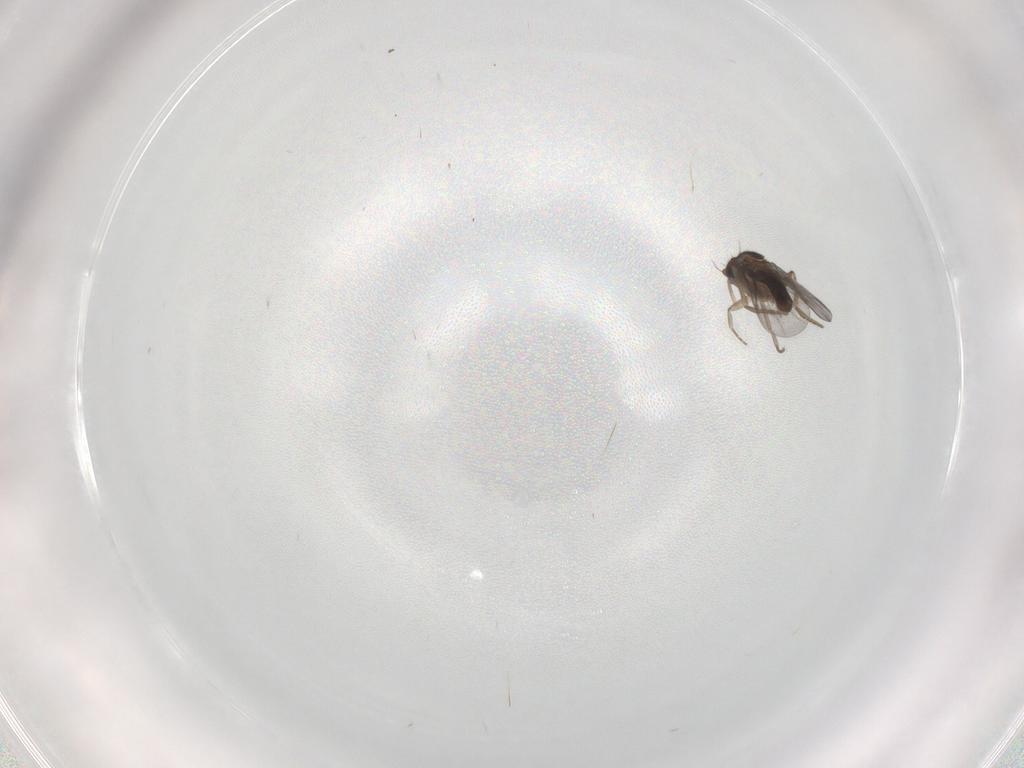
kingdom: Animalia
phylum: Arthropoda
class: Insecta
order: Diptera
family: Cecidomyiidae
